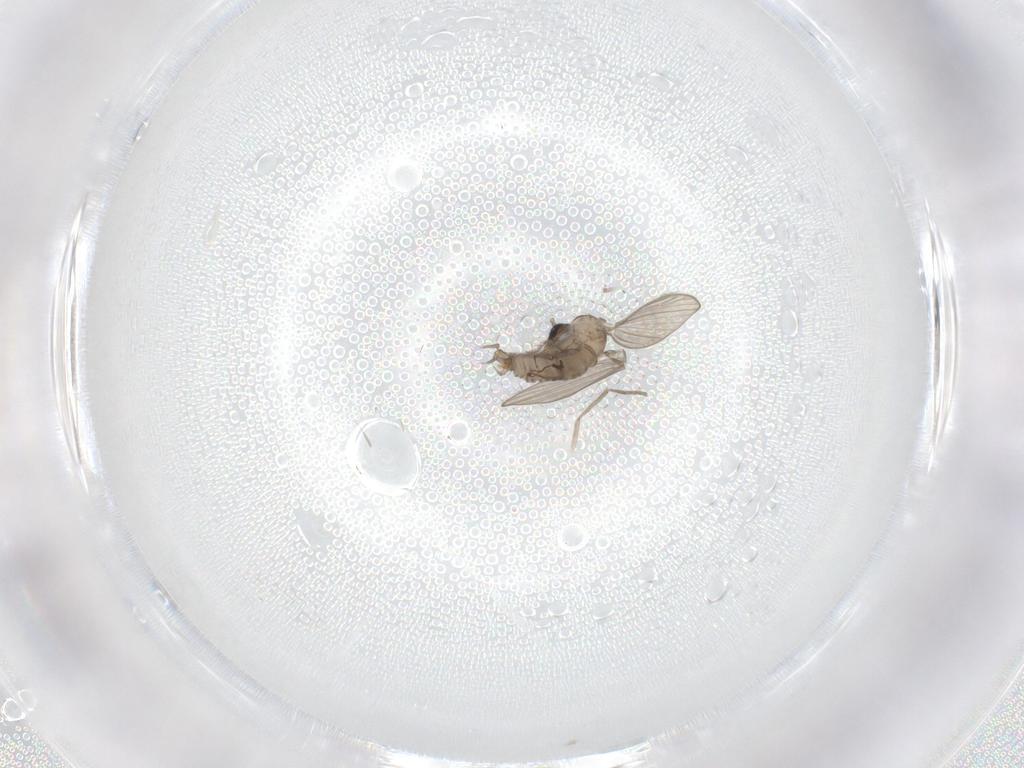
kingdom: Animalia
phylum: Arthropoda
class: Insecta
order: Diptera
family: Psychodidae
